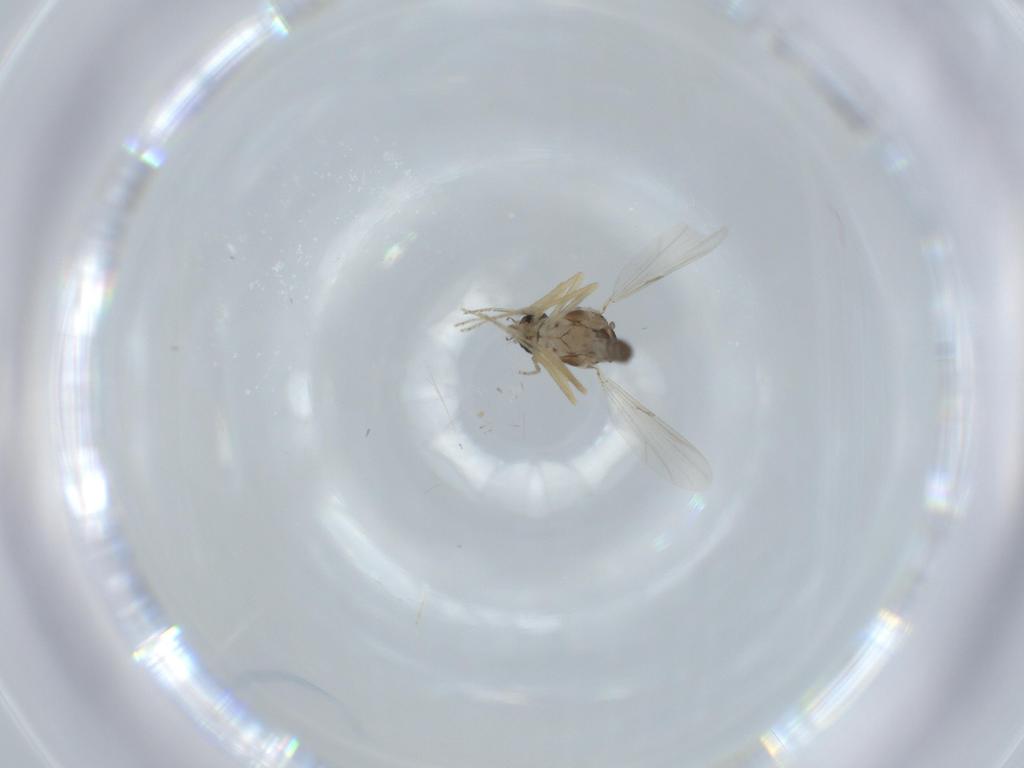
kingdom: Animalia
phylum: Arthropoda
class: Insecta
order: Diptera
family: Ceratopogonidae
